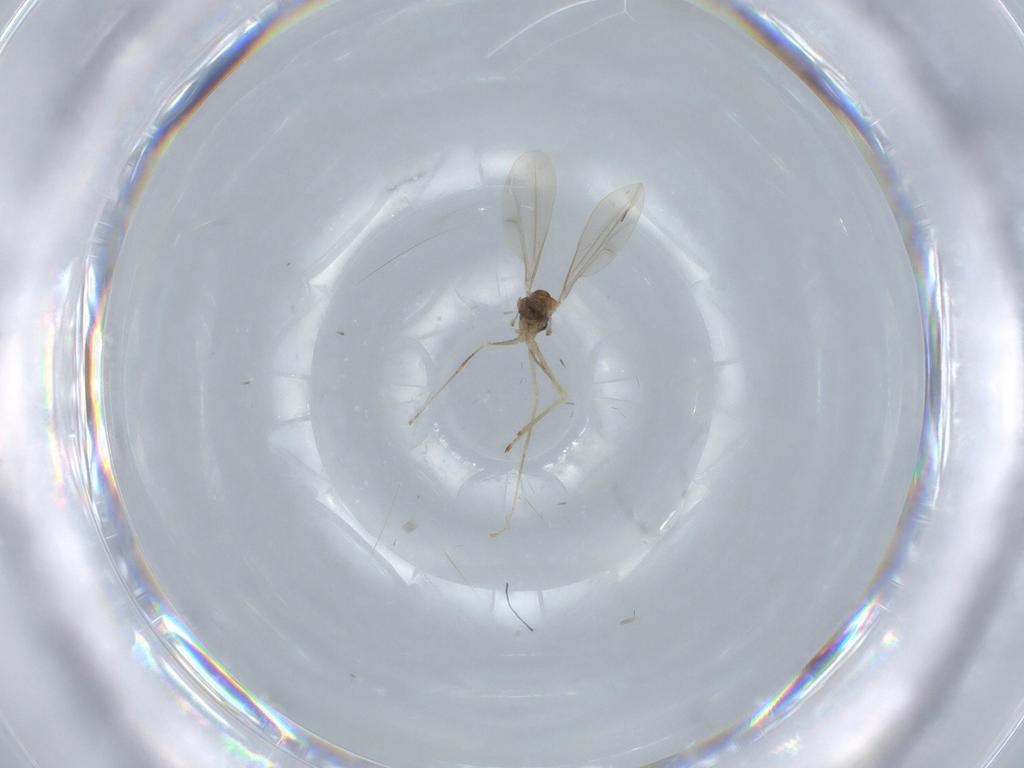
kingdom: Animalia
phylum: Arthropoda
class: Insecta
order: Diptera
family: Cecidomyiidae
